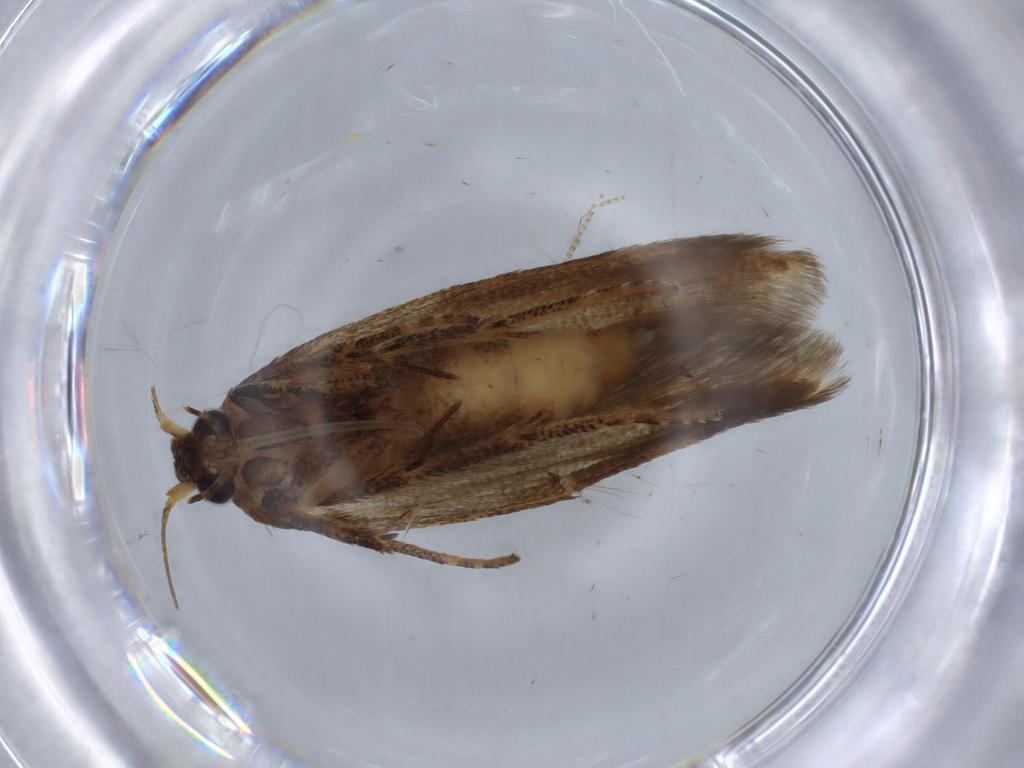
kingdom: Animalia
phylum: Arthropoda
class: Insecta
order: Lepidoptera
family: Tineidae
